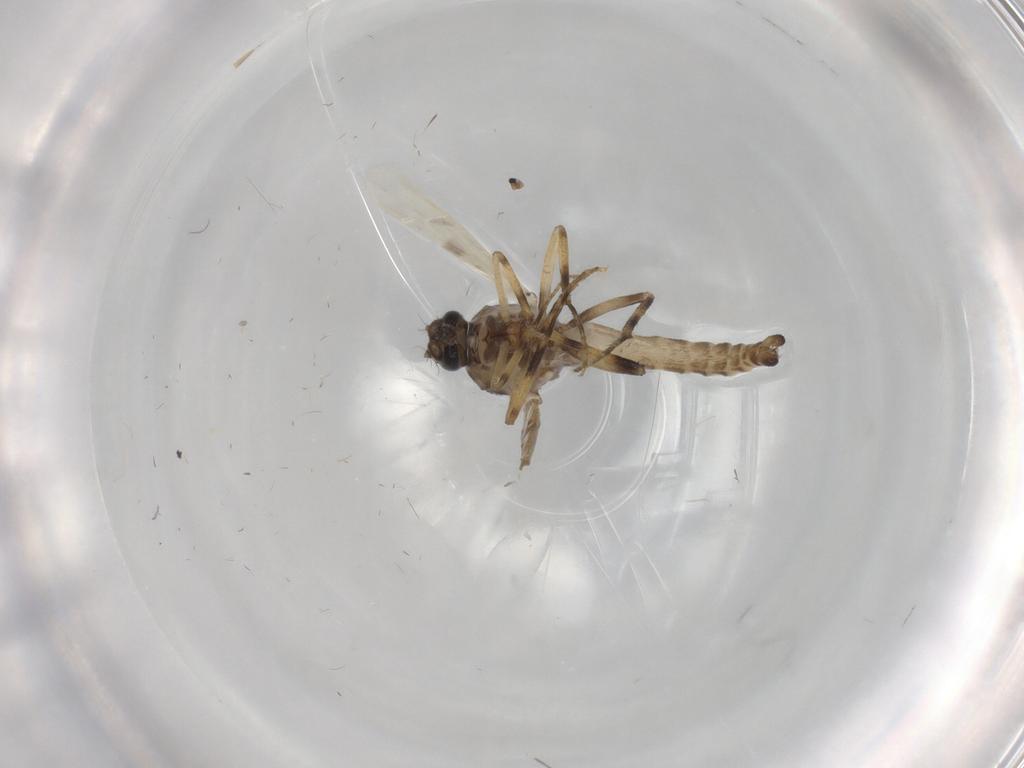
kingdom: Animalia
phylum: Arthropoda
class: Insecta
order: Diptera
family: Ceratopogonidae
